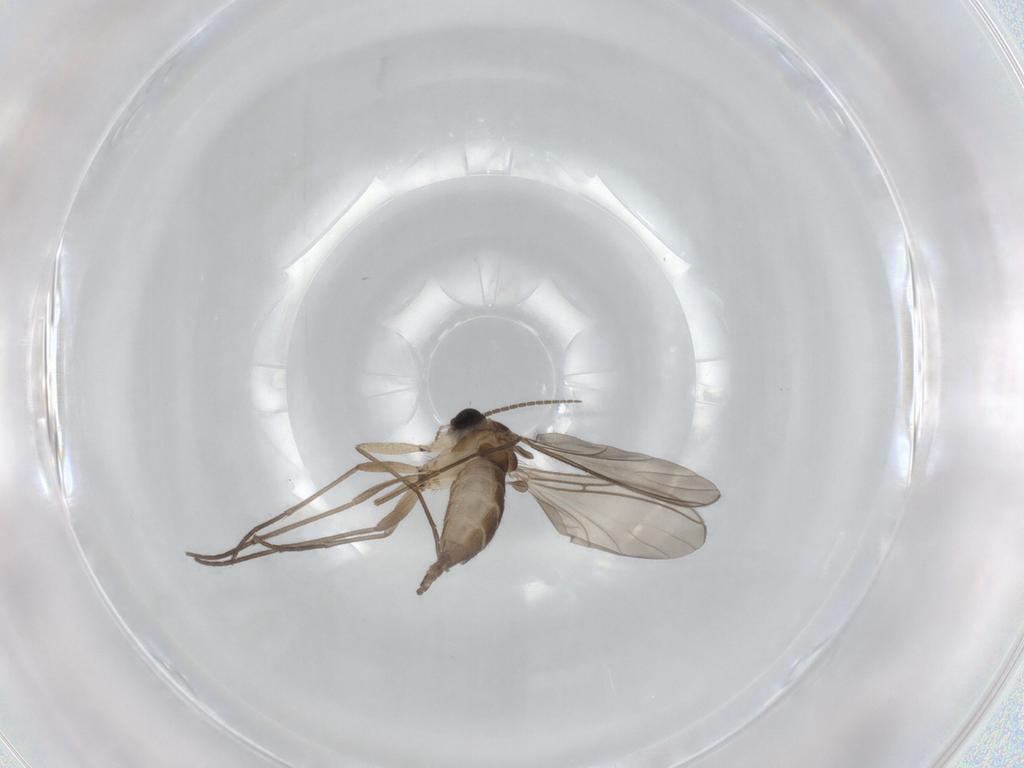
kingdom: Animalia
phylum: Arthropoda
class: Insecta
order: Diptera
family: Sciaridae
